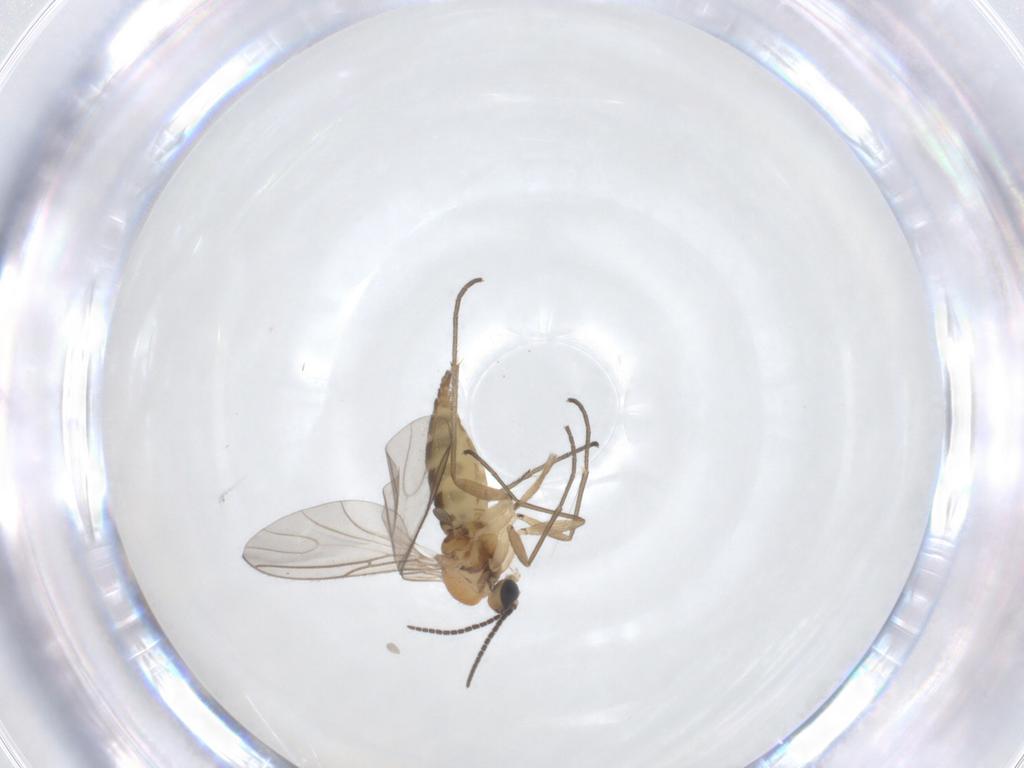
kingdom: Animalia
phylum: Arthropoda
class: Insecta
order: Diptera
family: Sciaridae
